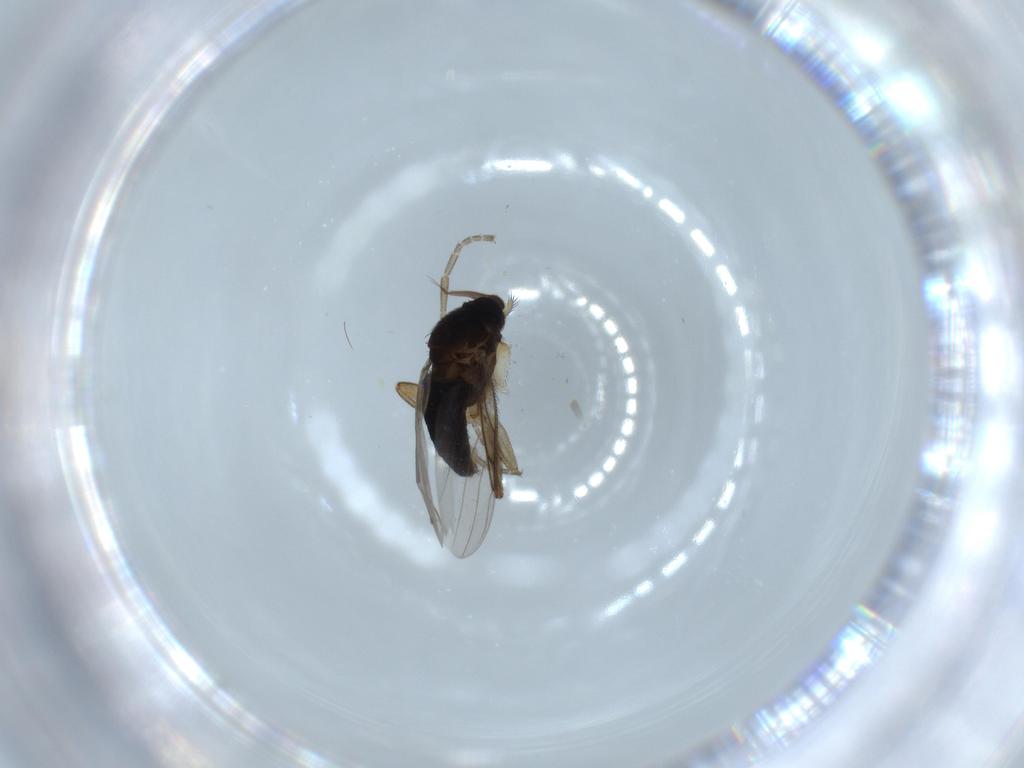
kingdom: Animalia
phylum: Arthropoda
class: Insecta
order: Diptera
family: Phoridae
